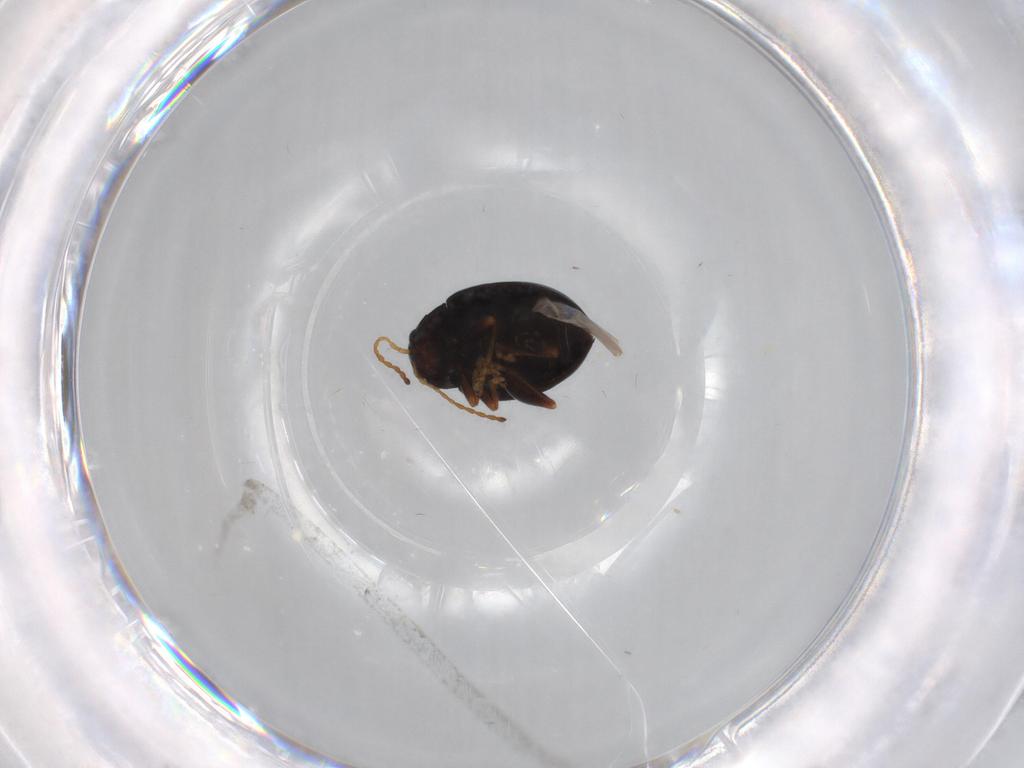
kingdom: Animalia
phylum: Arthropoda
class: Insecta
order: Coleoptera
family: Chrysomelidae
